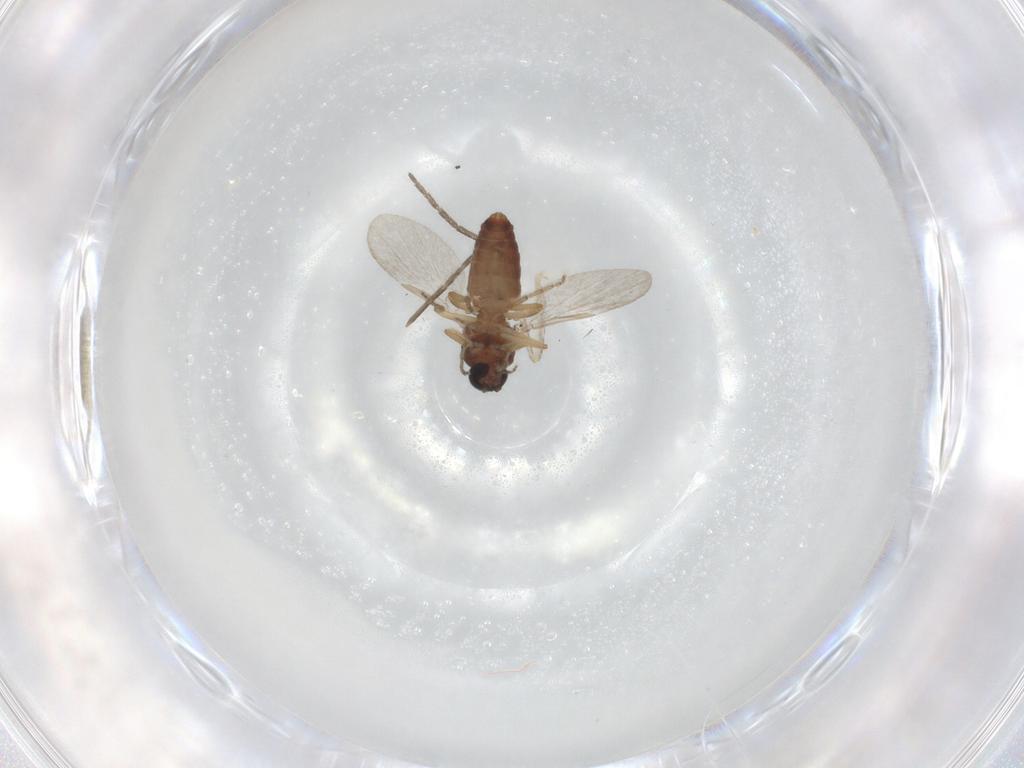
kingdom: Animalia
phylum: Arthropoda
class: Insecta
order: Diptera
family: Ceratopogonidae
